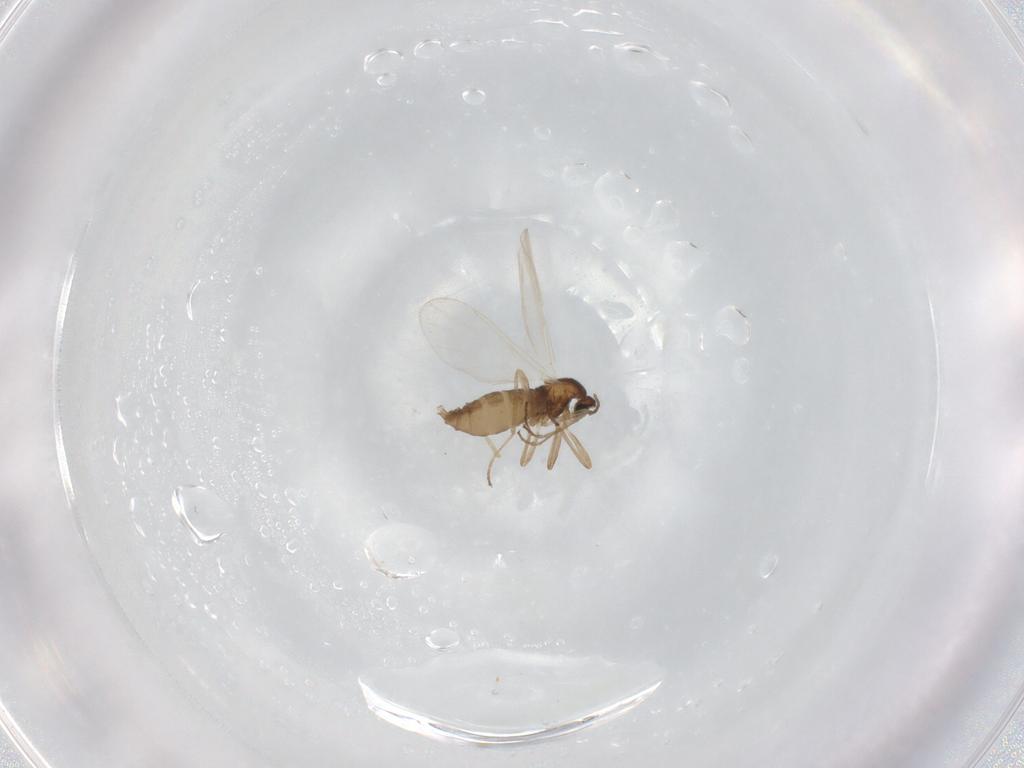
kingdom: Animalia
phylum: Arthropoda
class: Insecta
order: Diptera
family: Cecidomyiidae
